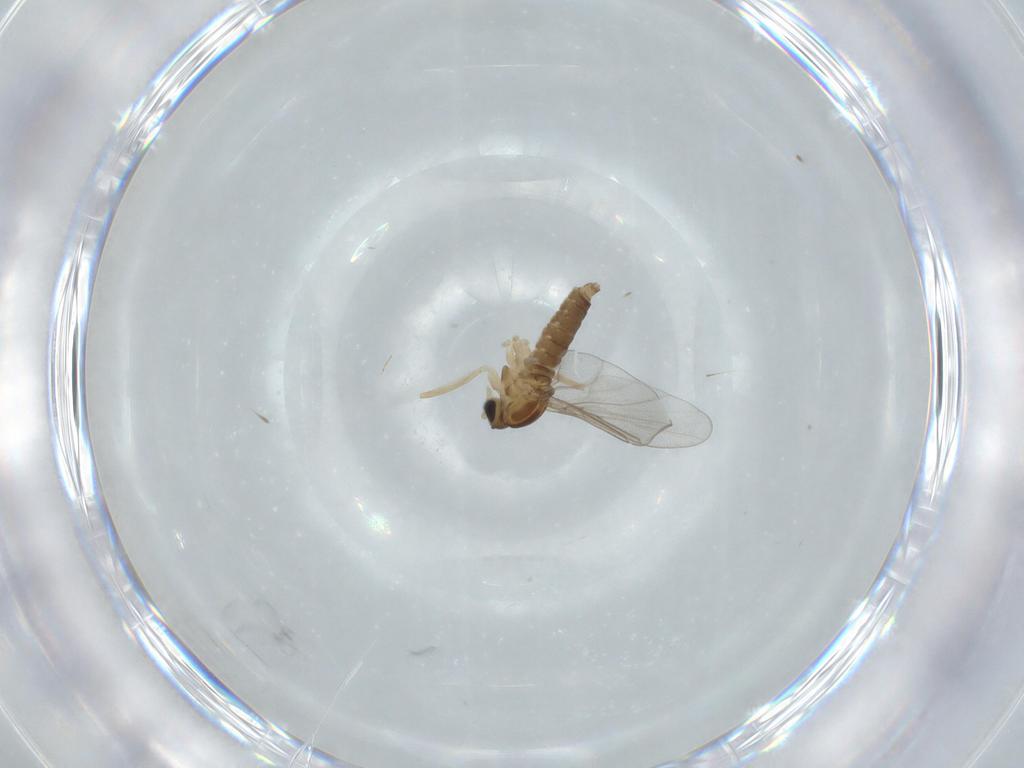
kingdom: Animalia
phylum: Arthropoda
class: Insecta
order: Diptera
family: Cecidomyiidae
